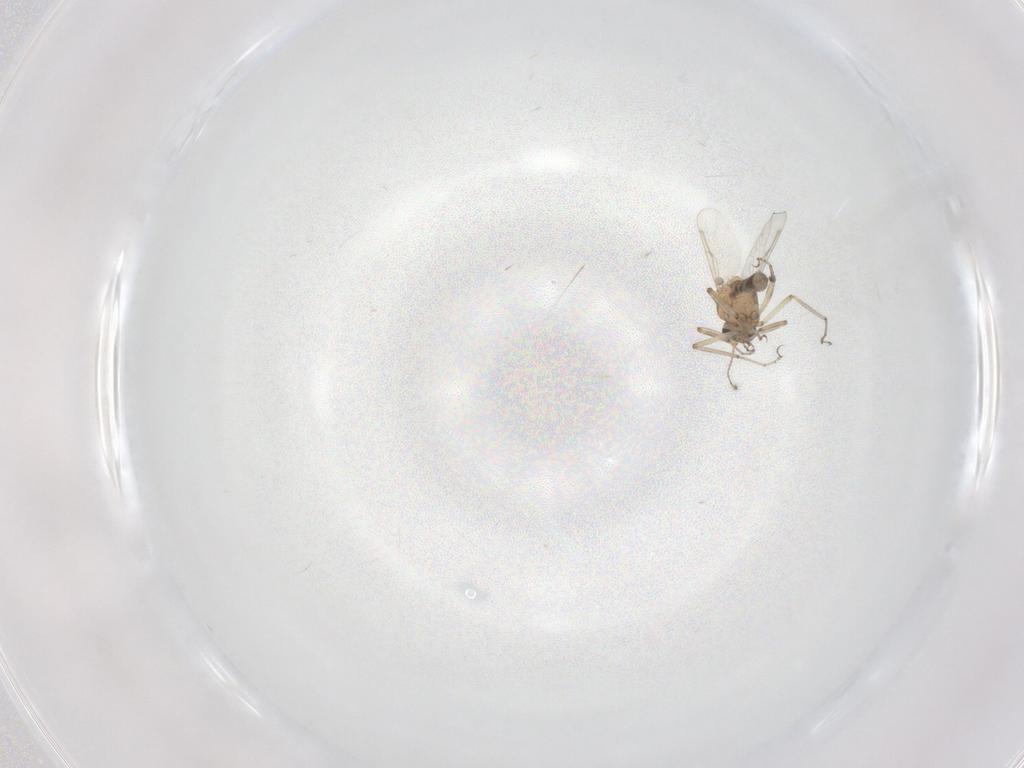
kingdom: Animalia
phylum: Arthropoda
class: Insecta
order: Diptera
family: Ceratopogonidae
